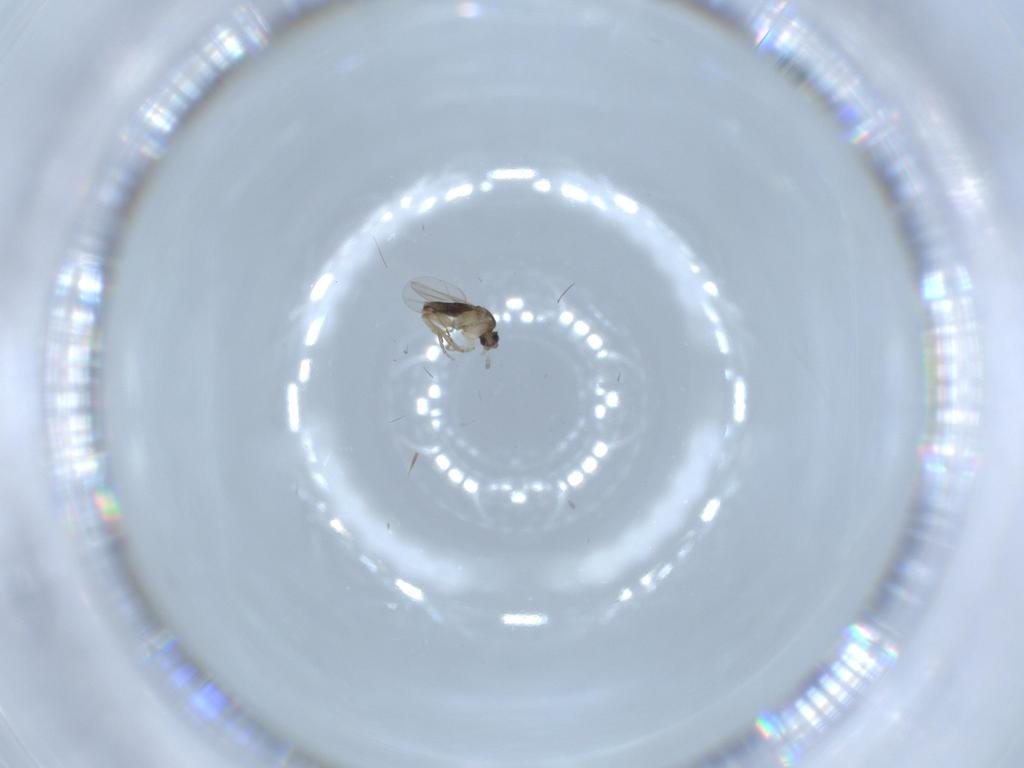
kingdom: Animalia
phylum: Arthropoda
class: Insecta
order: Diptera
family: Phoridae
